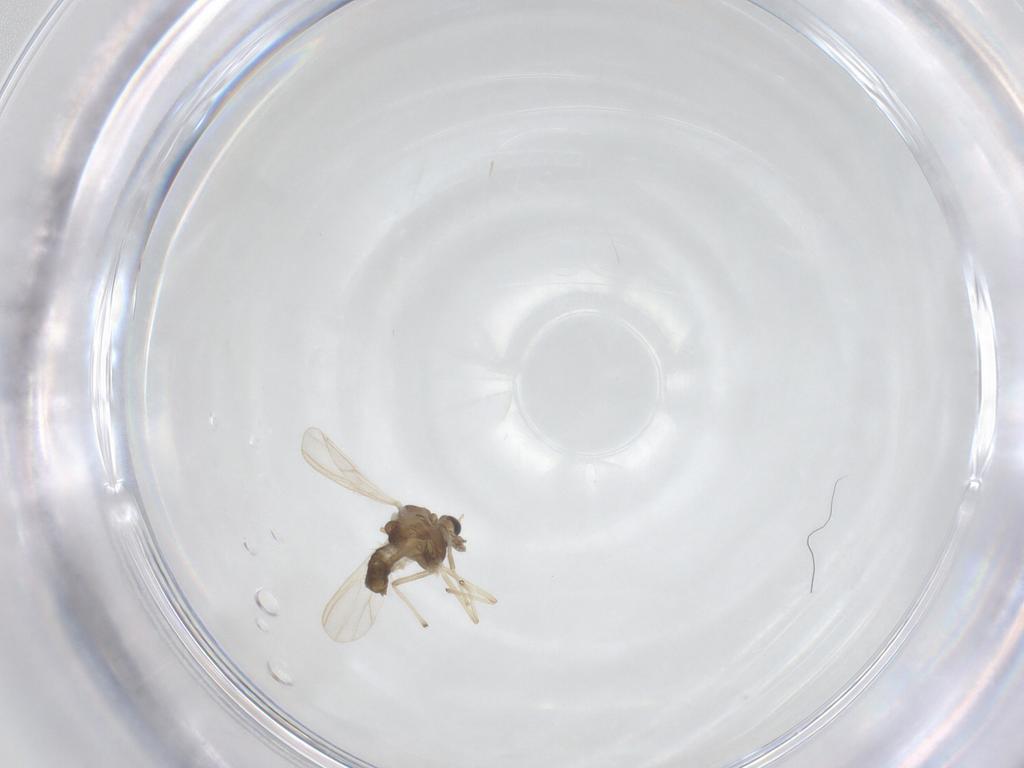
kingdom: Animalia
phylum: Arthropoda
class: Insecta
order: Diptera
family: Chironomidae
